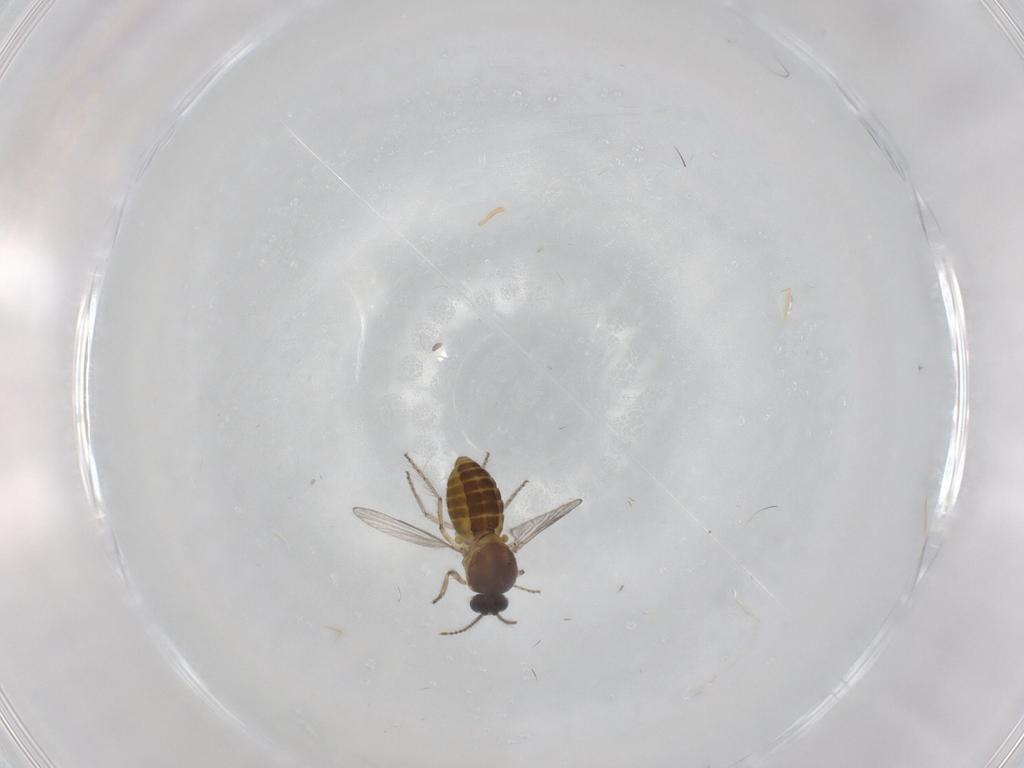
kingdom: Animalia
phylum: Arthropoda
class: Insecta
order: Diptera
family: Ceratopogonidae
